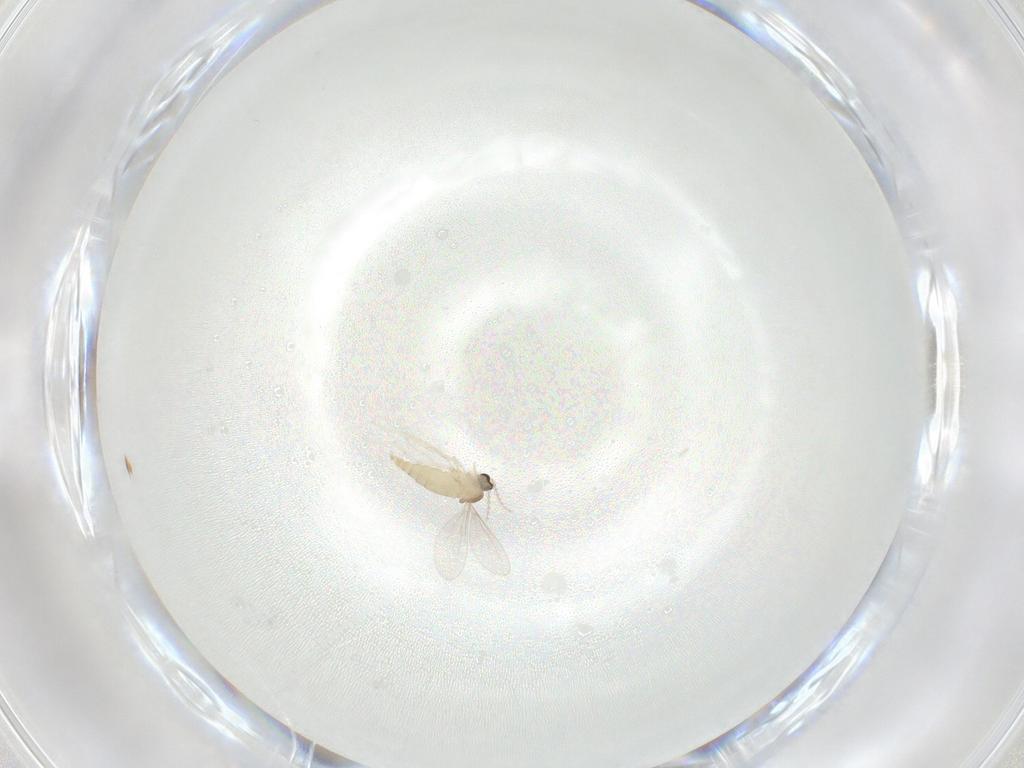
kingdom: Animalia
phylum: Arthropoda
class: Insecta
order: Diptera
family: Cecidomyiidae
